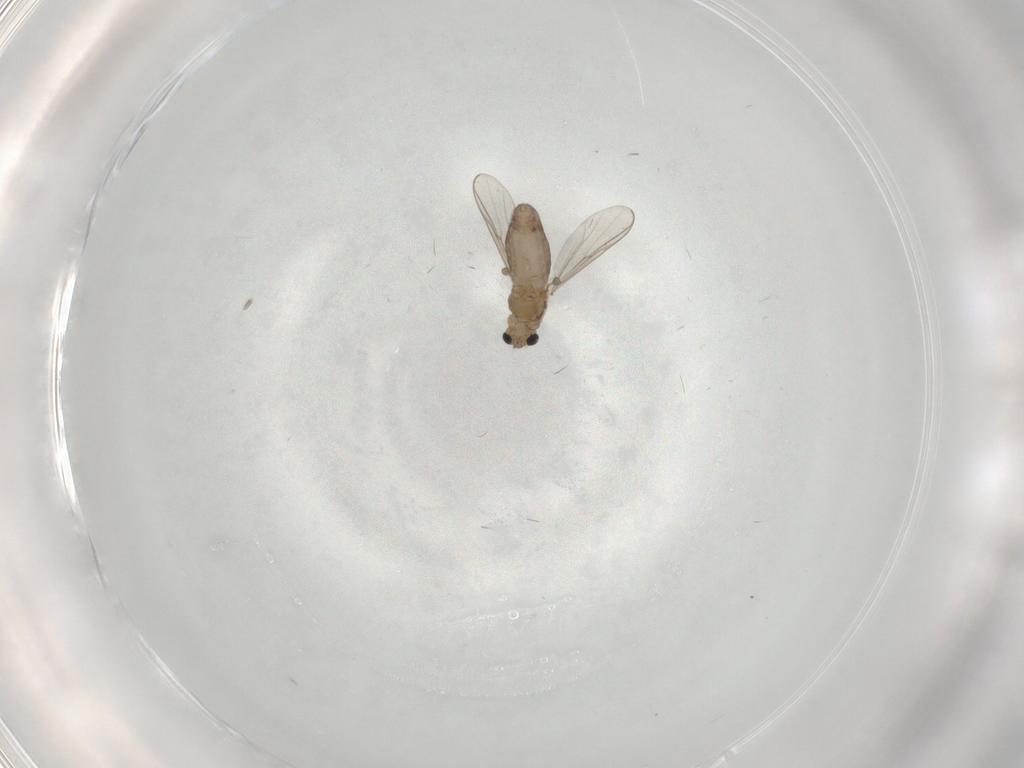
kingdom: Animalia
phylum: Arthropoda
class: Insecta
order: Diptera
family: Chironomidae
